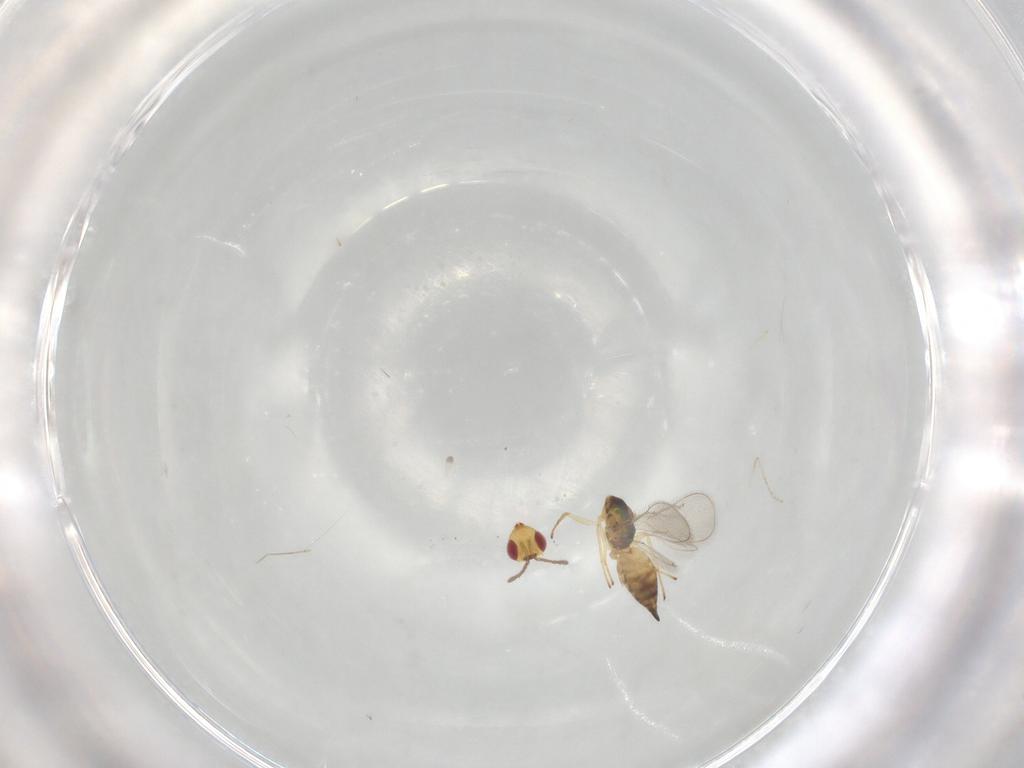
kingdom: Animalia
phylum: Arthropoda
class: Insecta
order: Hymenoptera
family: Eulophidae
